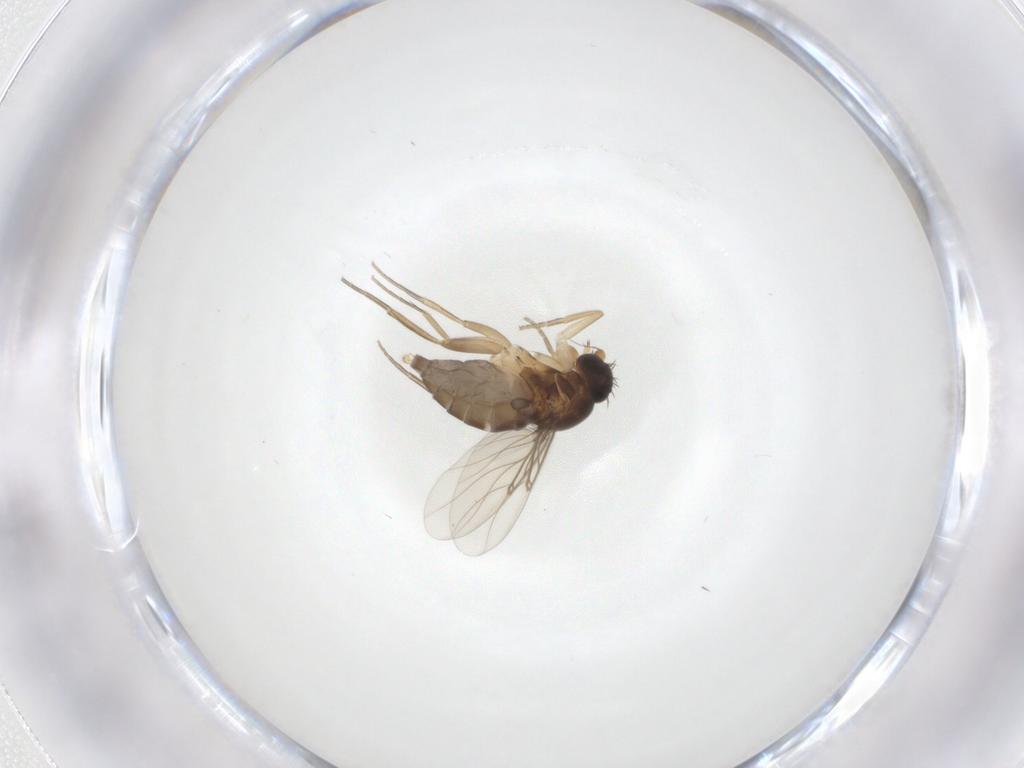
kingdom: Animalia
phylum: Arthropoda
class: Insecta
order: Diptera
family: Phoridae
